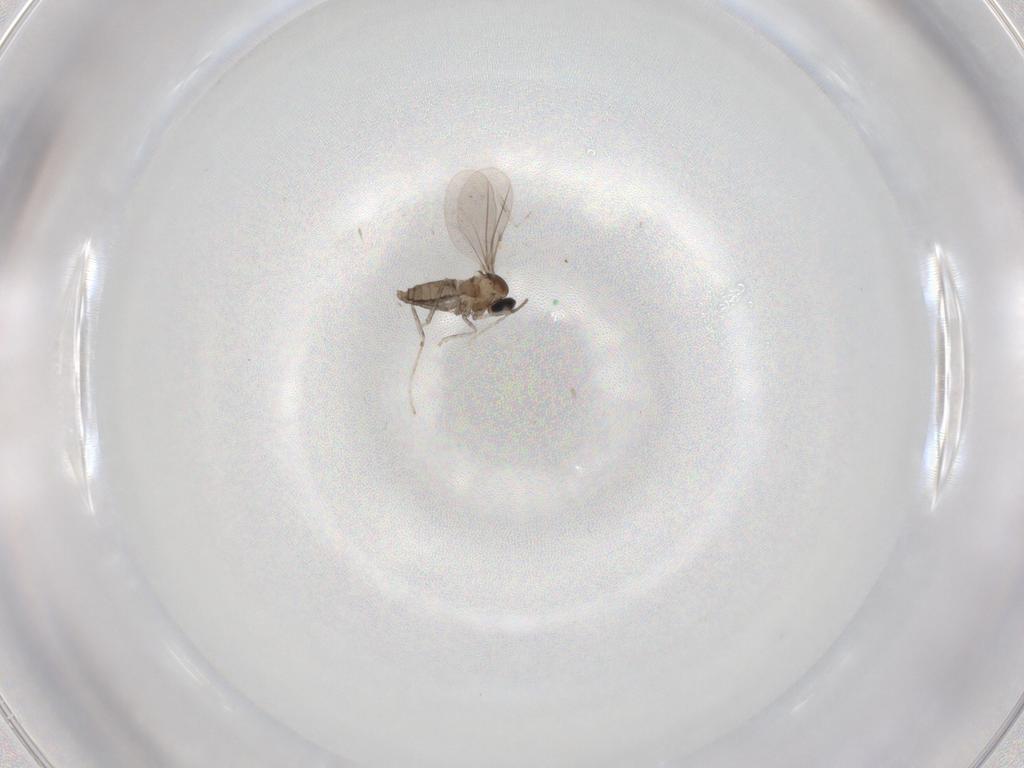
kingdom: Animalia
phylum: Arthropoda
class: Insecta
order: Diptera
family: Cecidomyiidae
